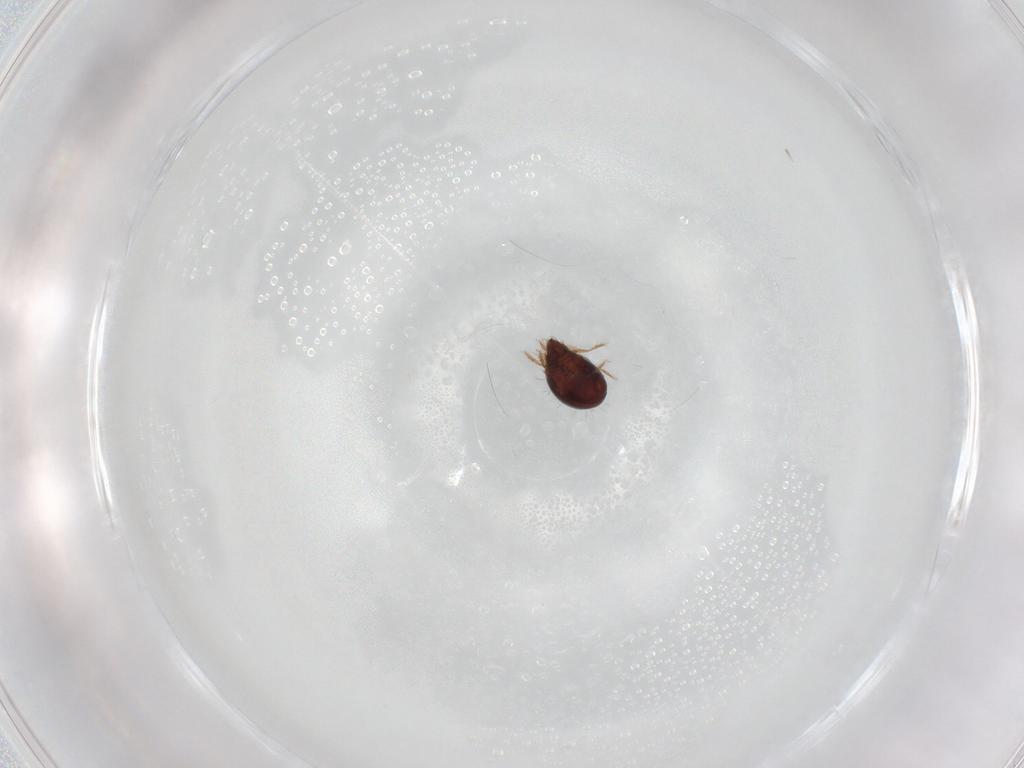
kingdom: Animalia
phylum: Arthropoda
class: Arachnida
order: Sarcoptiformes
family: Humerobatidae
